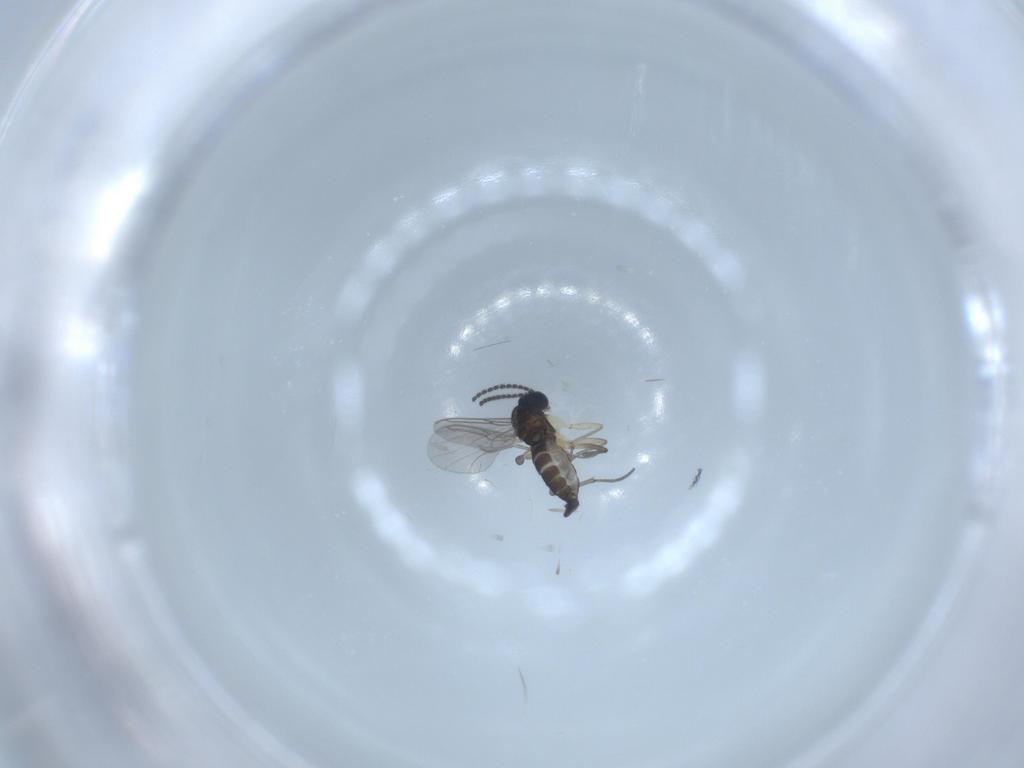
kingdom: Animalia
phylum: Arthropoda
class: Insecta
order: Diptera
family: Sciaridae
